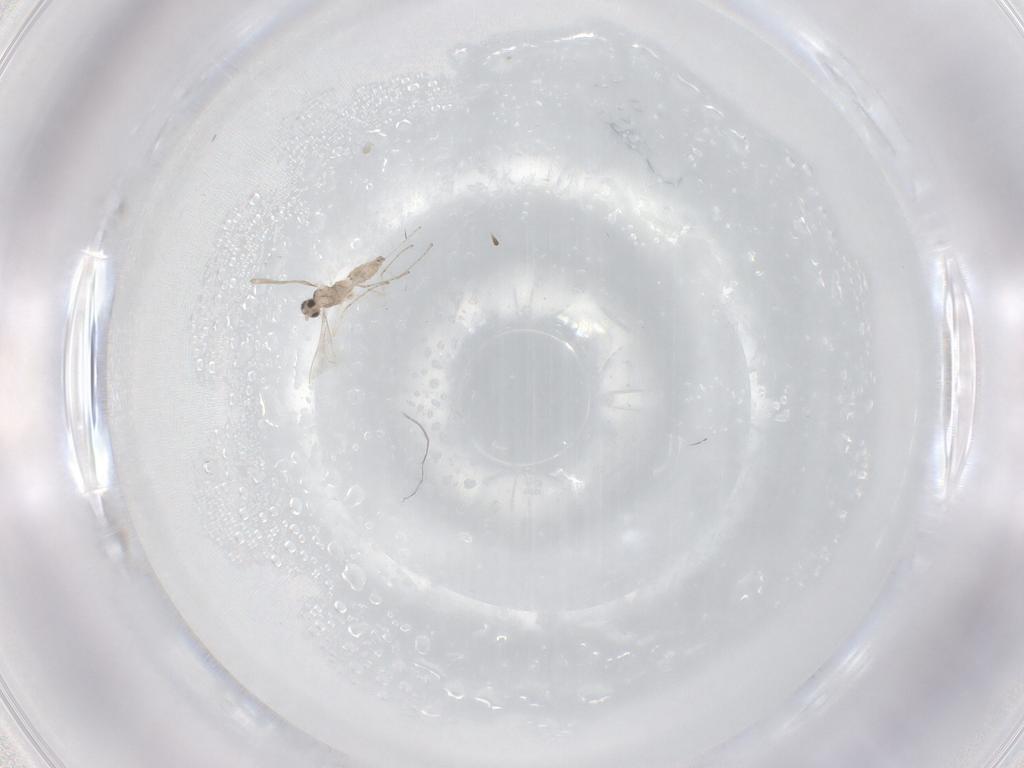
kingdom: Animalia
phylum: Arthropoda
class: Insecta
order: Diptera
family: Cecidomyiidae
